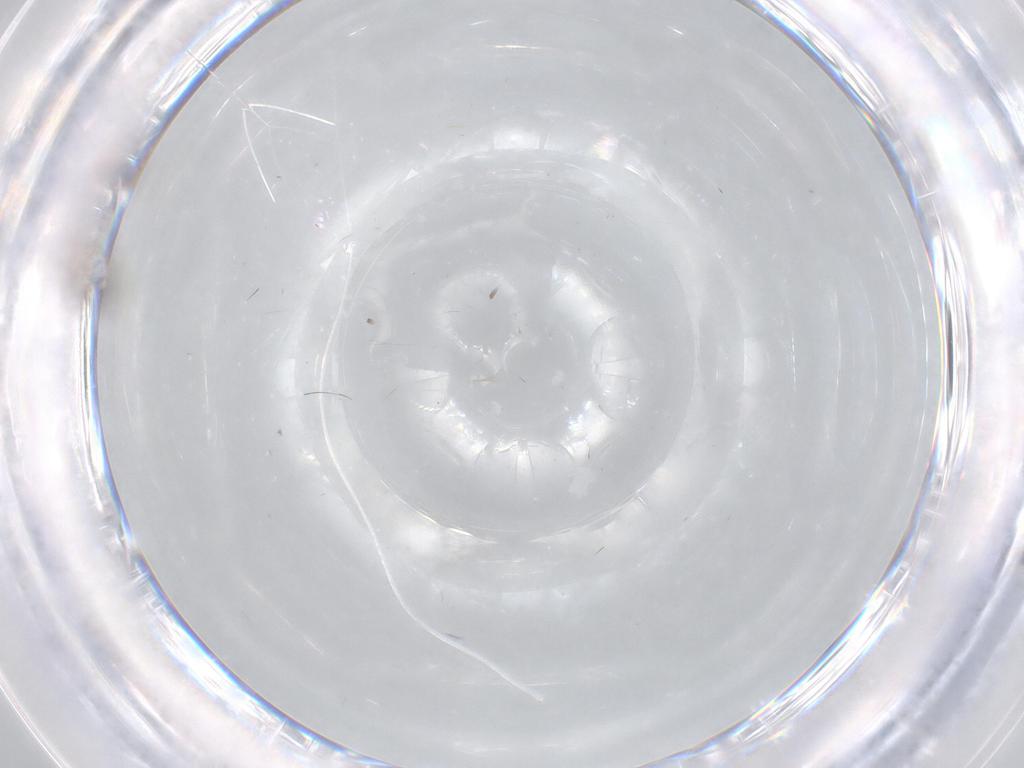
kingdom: Animalia
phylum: Arthropoda
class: Insecta
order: Diptera
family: Psychodidae
